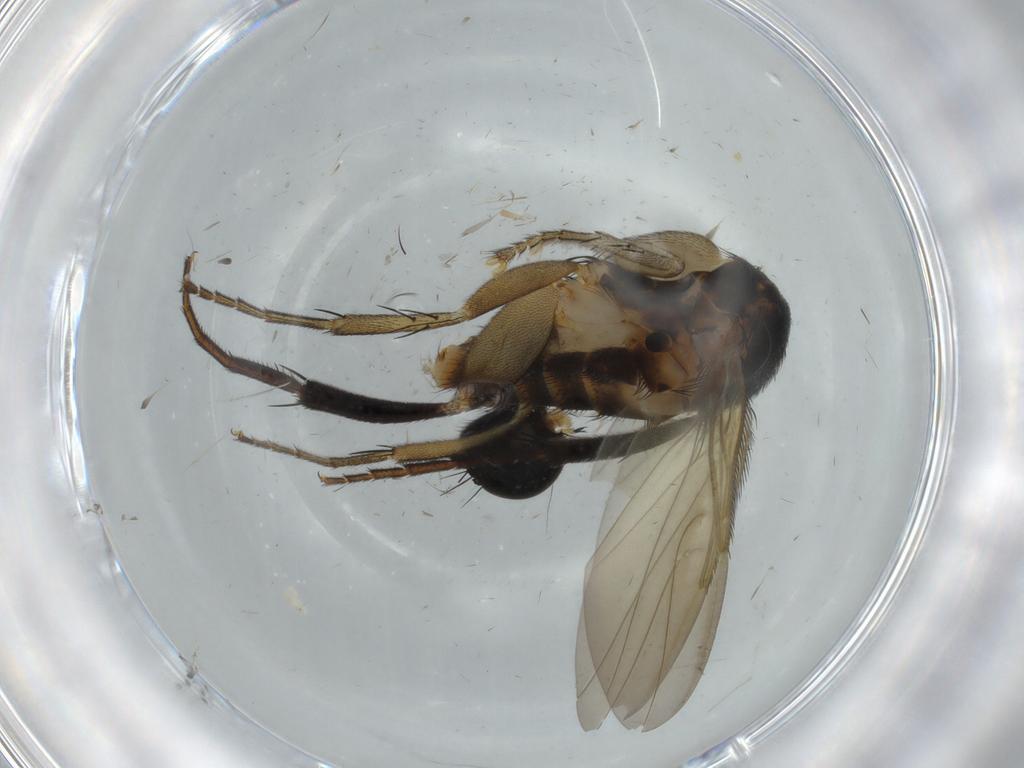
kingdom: Animalia
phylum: Arthropoda
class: Insecta
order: Diptera
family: Phoridae
